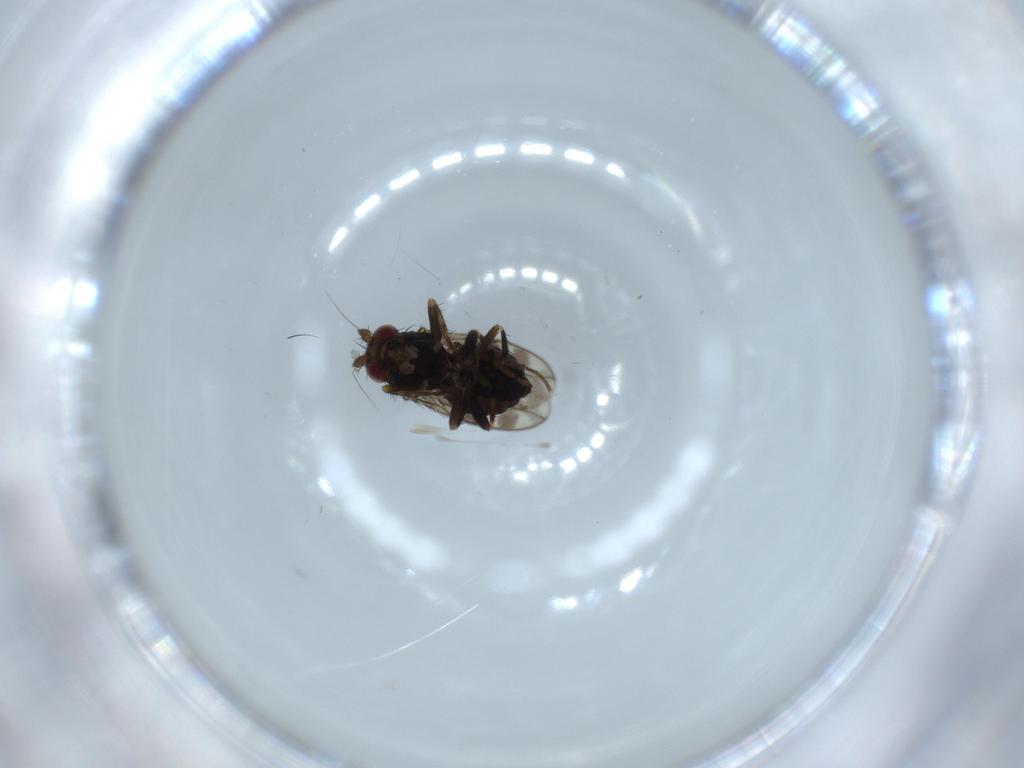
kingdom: Animalia
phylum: Arthropoda
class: Insecta
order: Diptera
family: Sphaeroceridae
